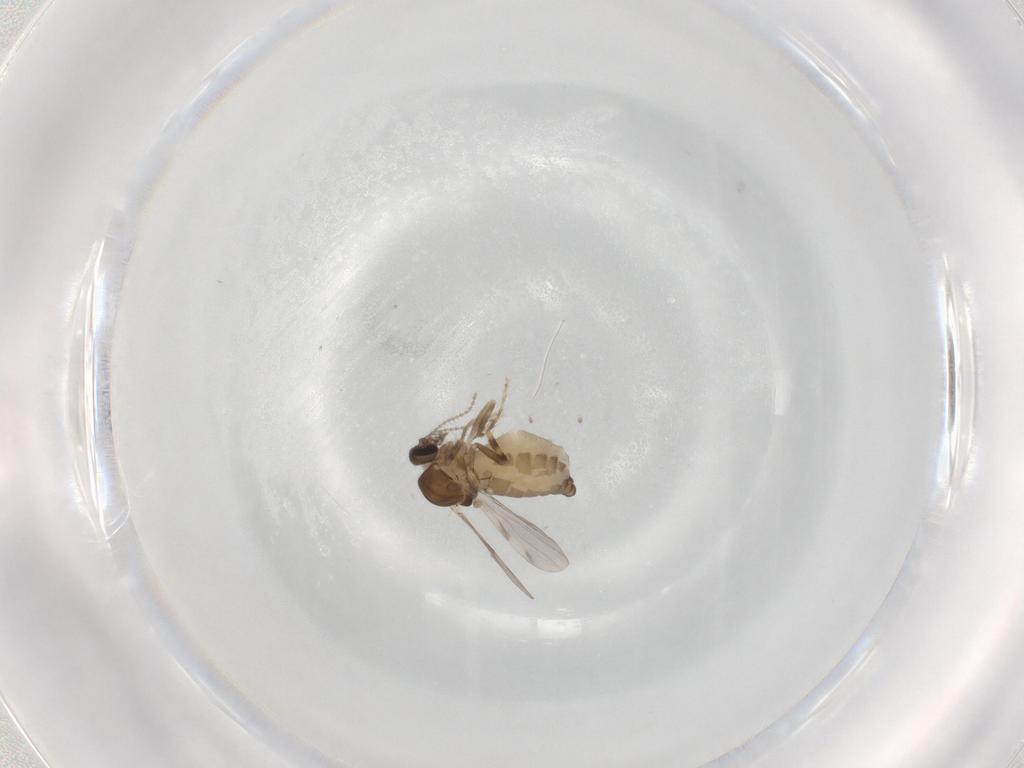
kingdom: Animalia
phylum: Arthropoda
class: Insecta
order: Diptera
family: Ceratopogonidae
